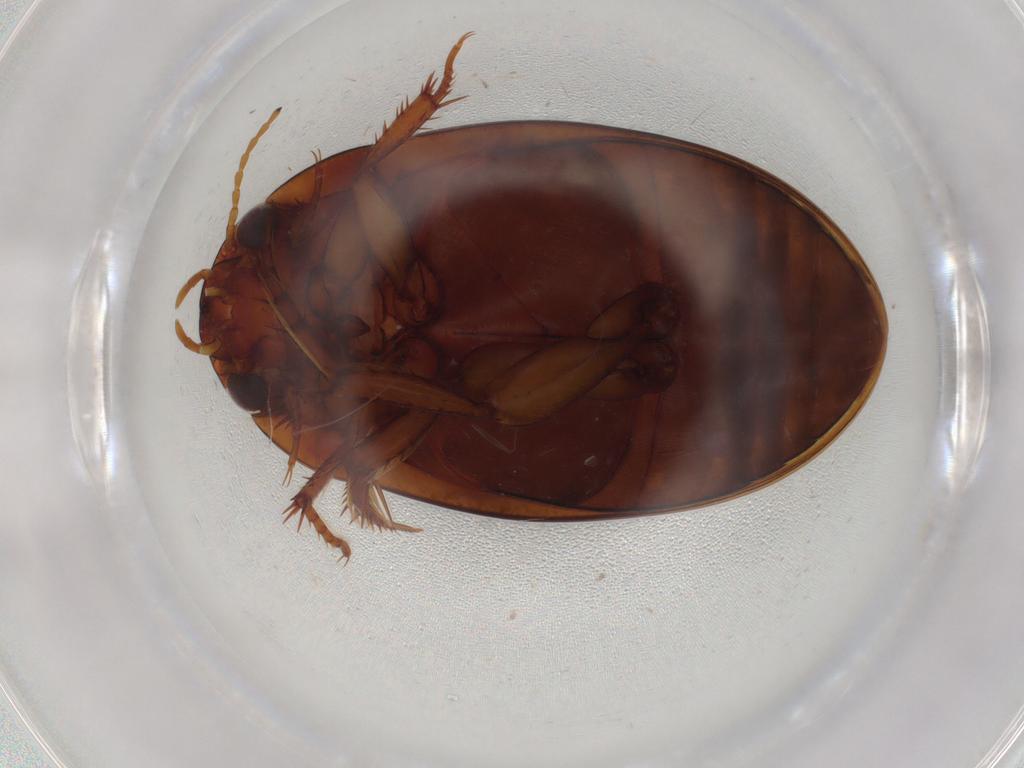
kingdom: Animalia
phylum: Arthropoda
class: Insecta
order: Coleoptera
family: Dytiscidae
